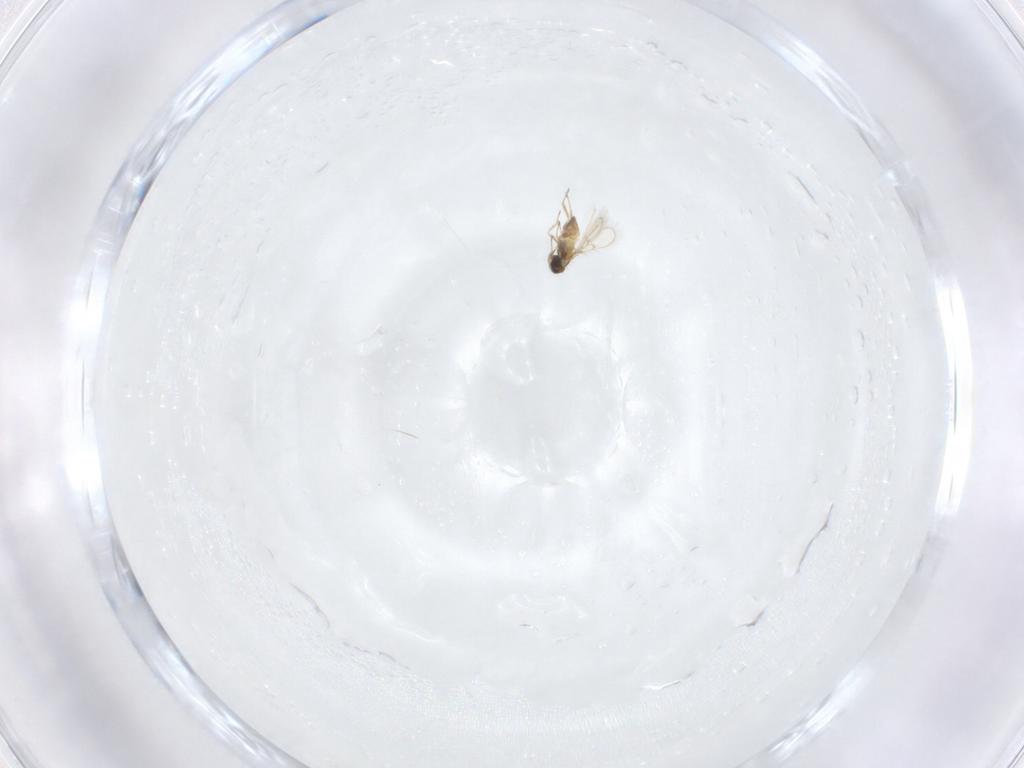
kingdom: Animalia
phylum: Arthropoda
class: Insecta
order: Hymenoptera
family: Trichogrammatidae
